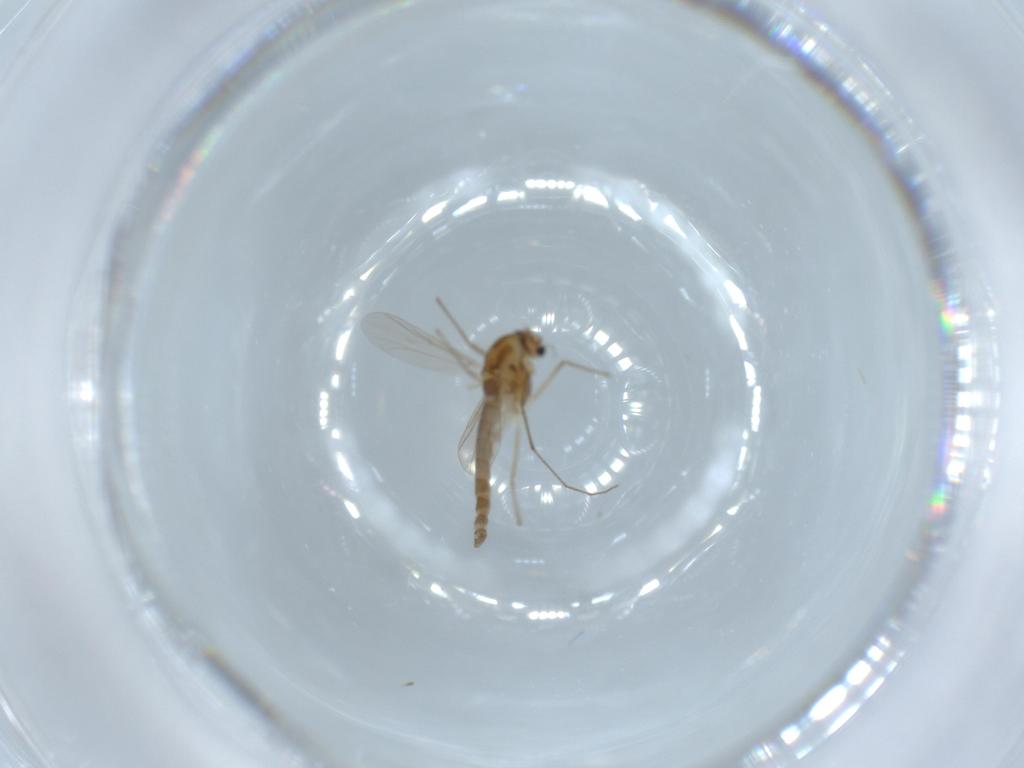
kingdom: Animalia
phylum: Arthropoda
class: Insecta
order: Diptera
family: Chironomidae
